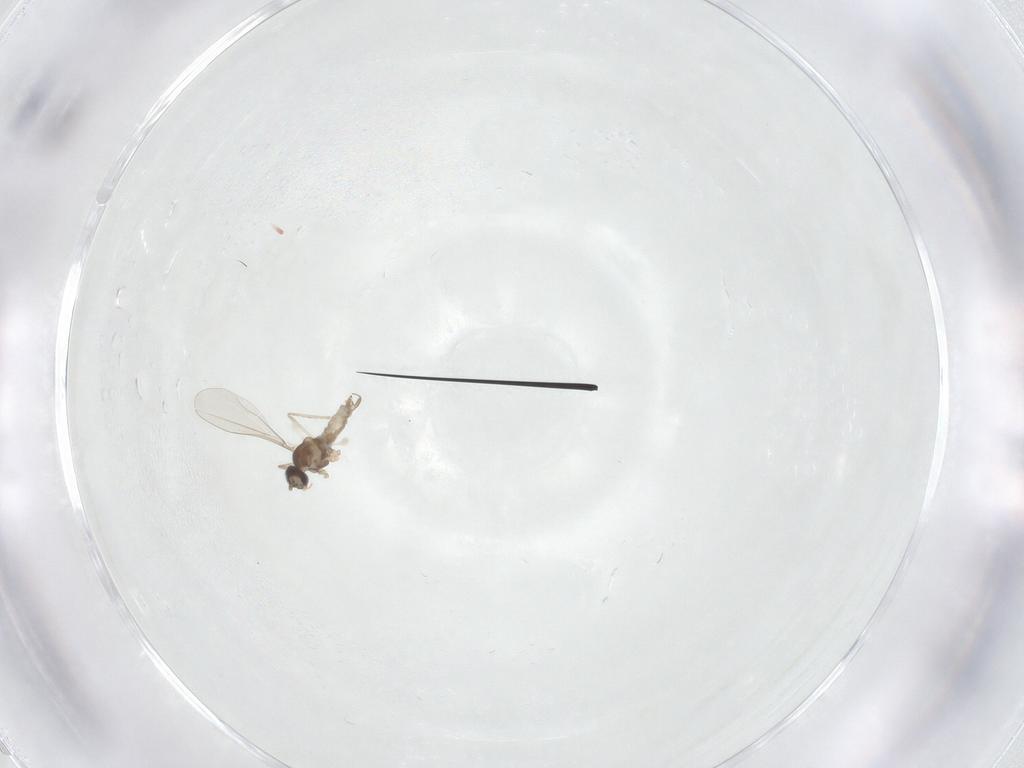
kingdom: Animalia
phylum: Arthropoda
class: Insecta
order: Diptera
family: Cecidomyiidae
